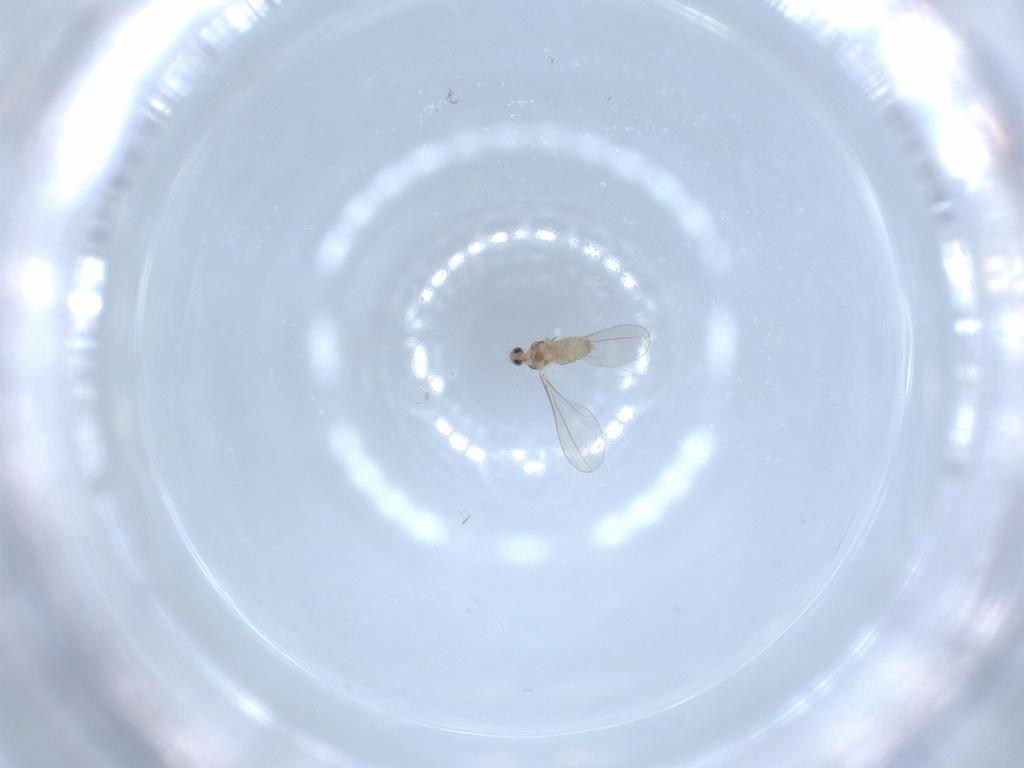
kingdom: Animalia
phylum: Arthropoda
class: Insecta
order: Diptera
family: Cecidomyiidae
